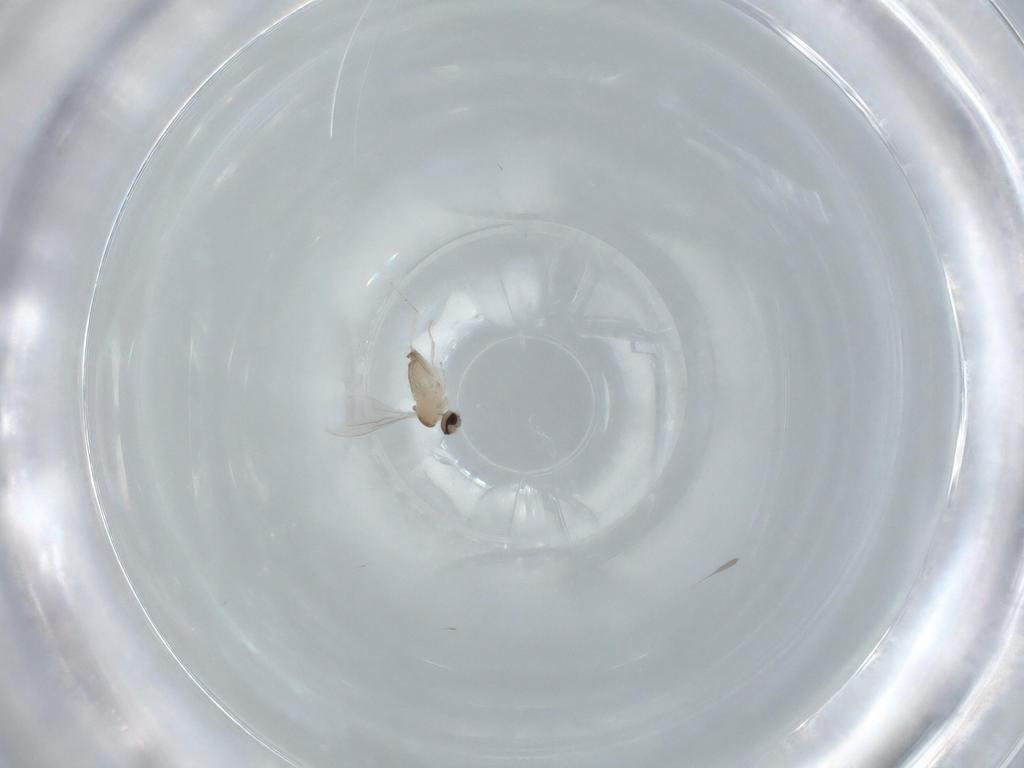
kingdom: Animalia
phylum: Arthropoda
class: Insecta
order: Diptera
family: Cecidomyiidae
